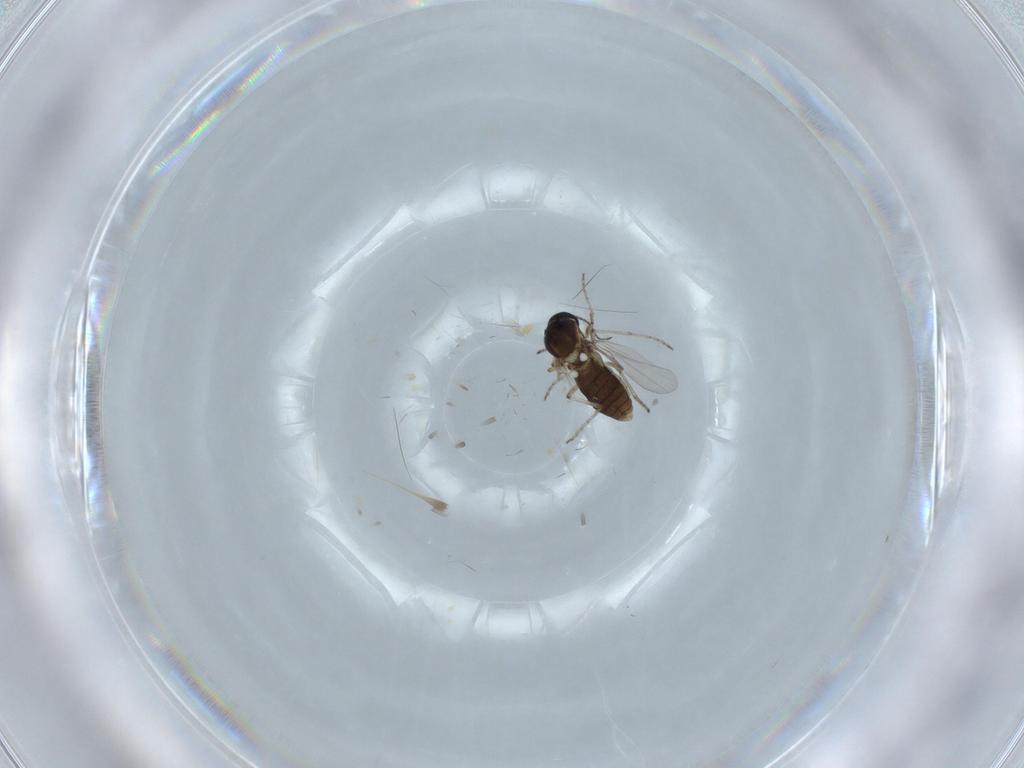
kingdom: Animalia
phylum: Arthropoda
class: Insecta
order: Diptera
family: Ceratopogonidae
